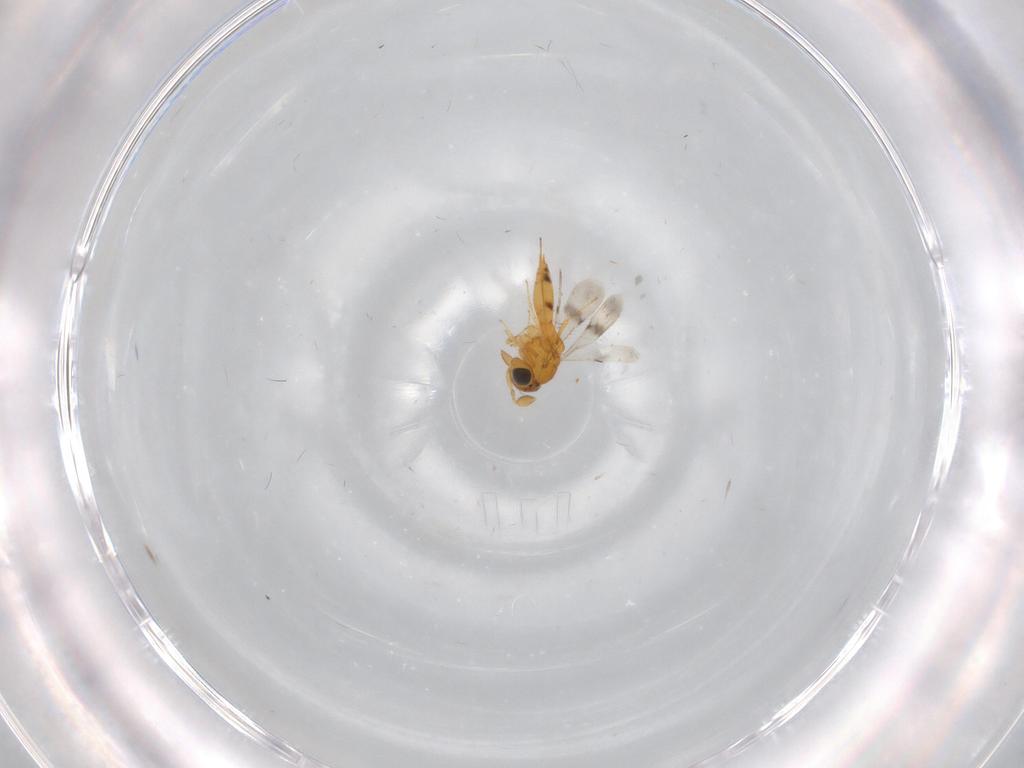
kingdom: Animalia
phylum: Arthropoda
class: Insecta
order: Hymenoptera
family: Scelionidae
